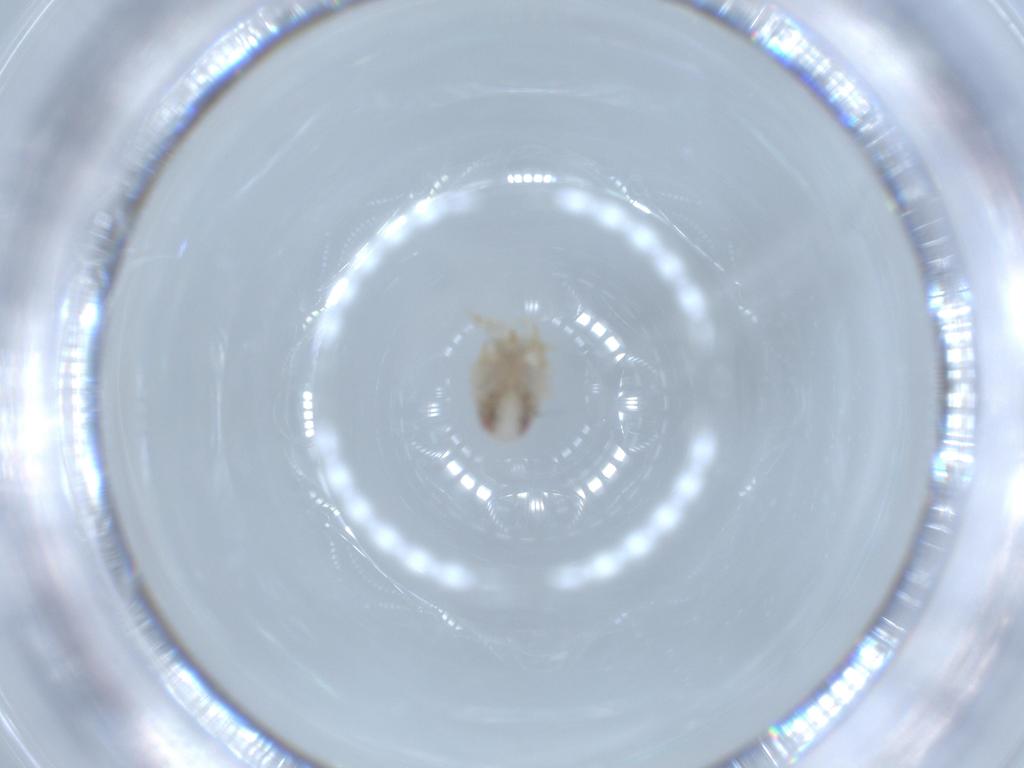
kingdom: Animalia
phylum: Arthropoda
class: Insecta
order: Hemiptera
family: Acanaloniidae
